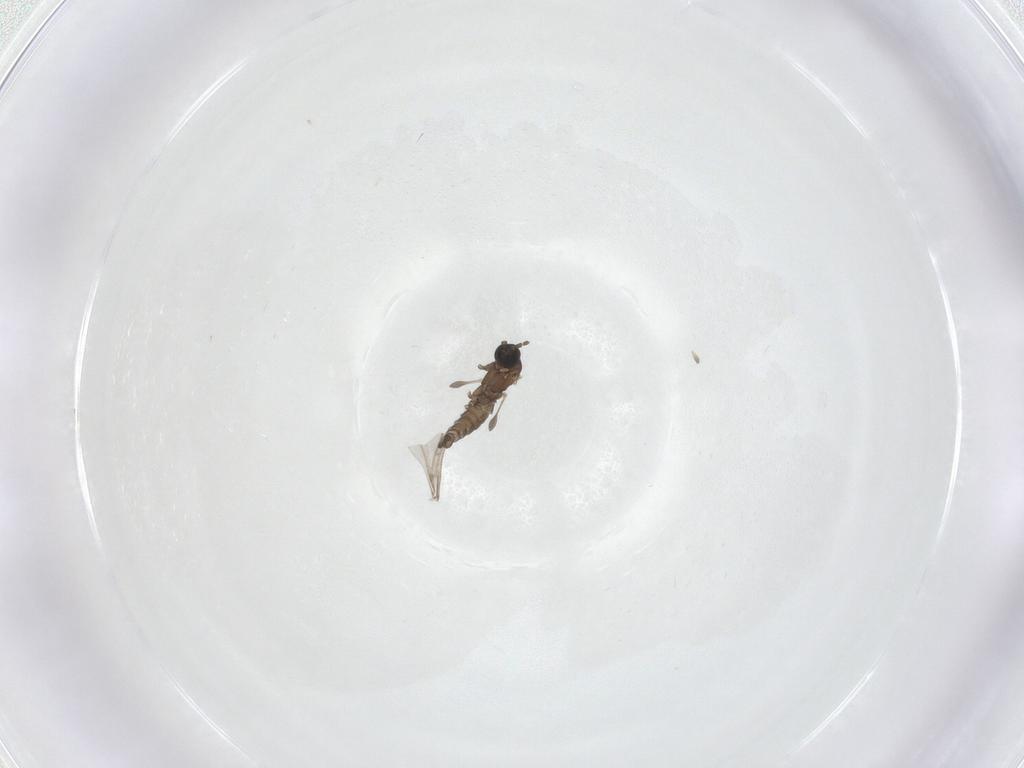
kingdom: Animalia
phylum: Arthropoda
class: Insecta
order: Diptera
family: Sciaridae
